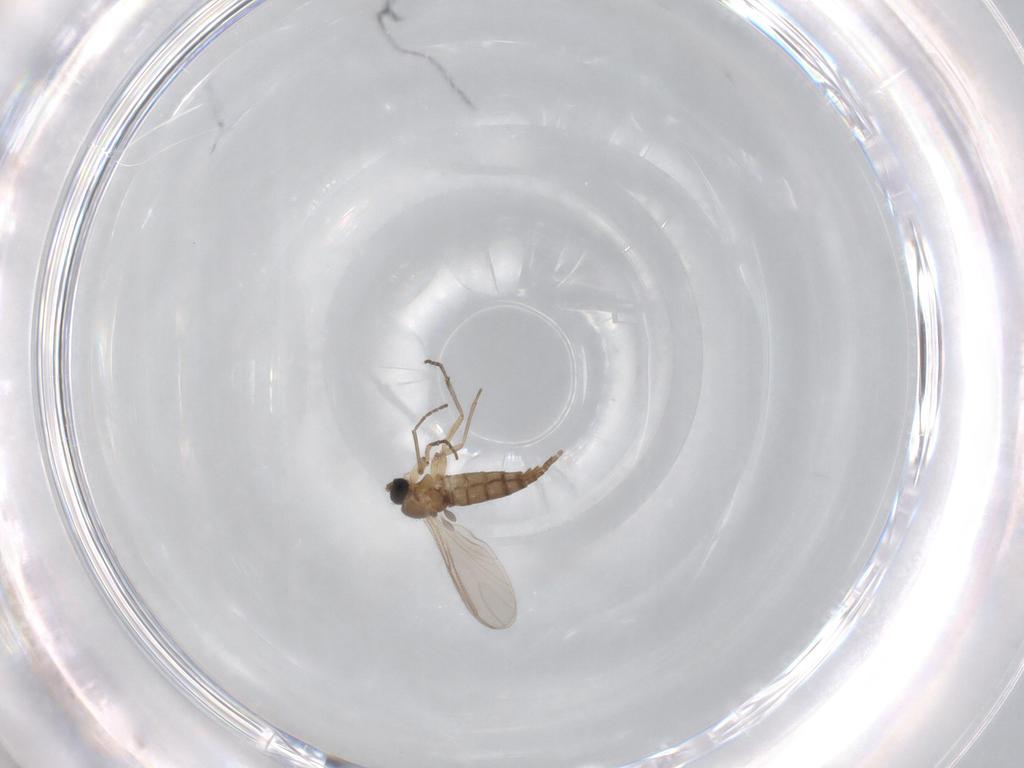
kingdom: Animalia
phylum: Arthropoda
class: Insecta
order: Diptera
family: Sciaridae
